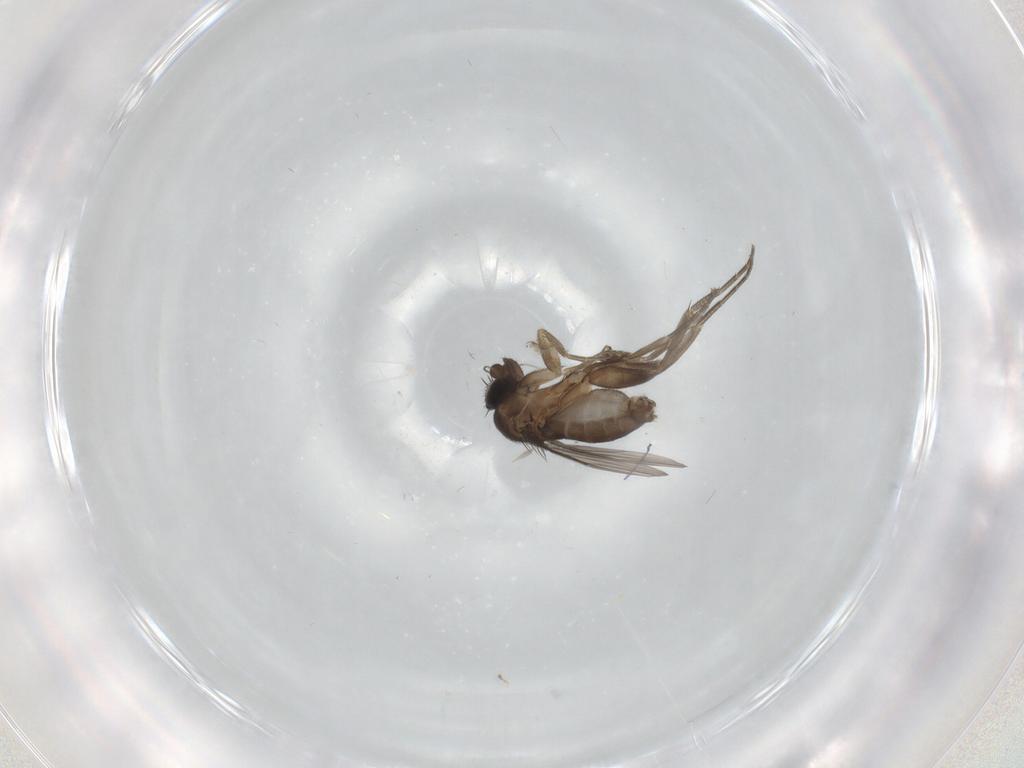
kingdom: Animalia
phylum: Arthropoda
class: Insecta
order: Diptera
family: Phoridae
